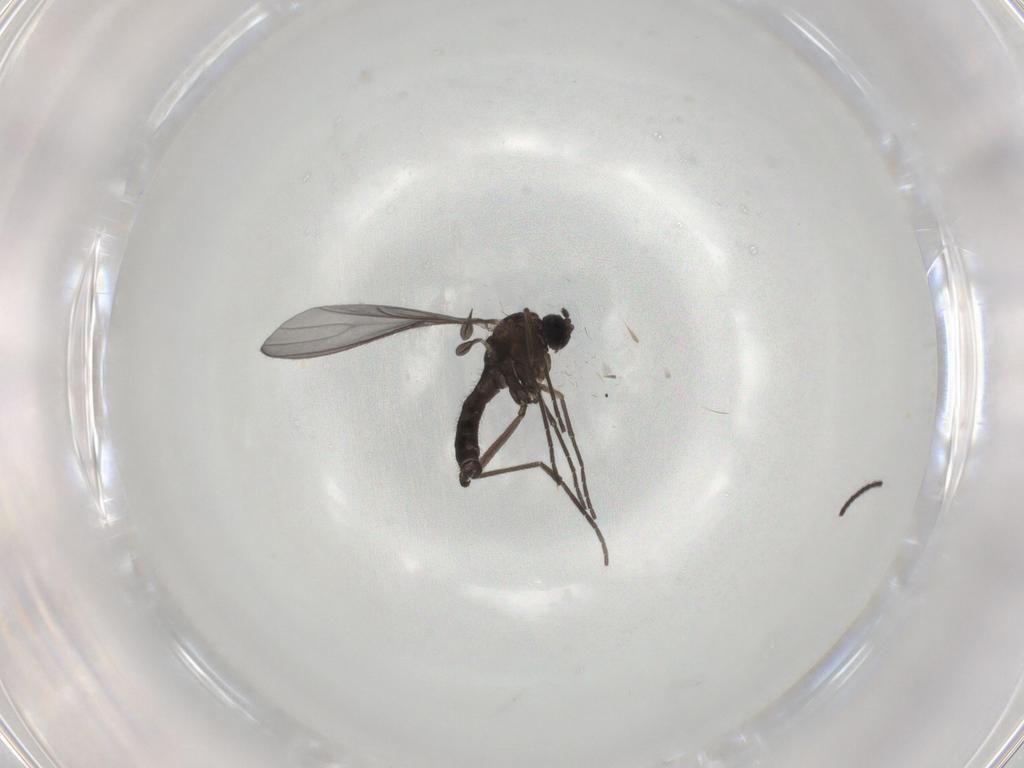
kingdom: Animalia
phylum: Arthropoda
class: Insecta
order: Diptera
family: Sciaridae
